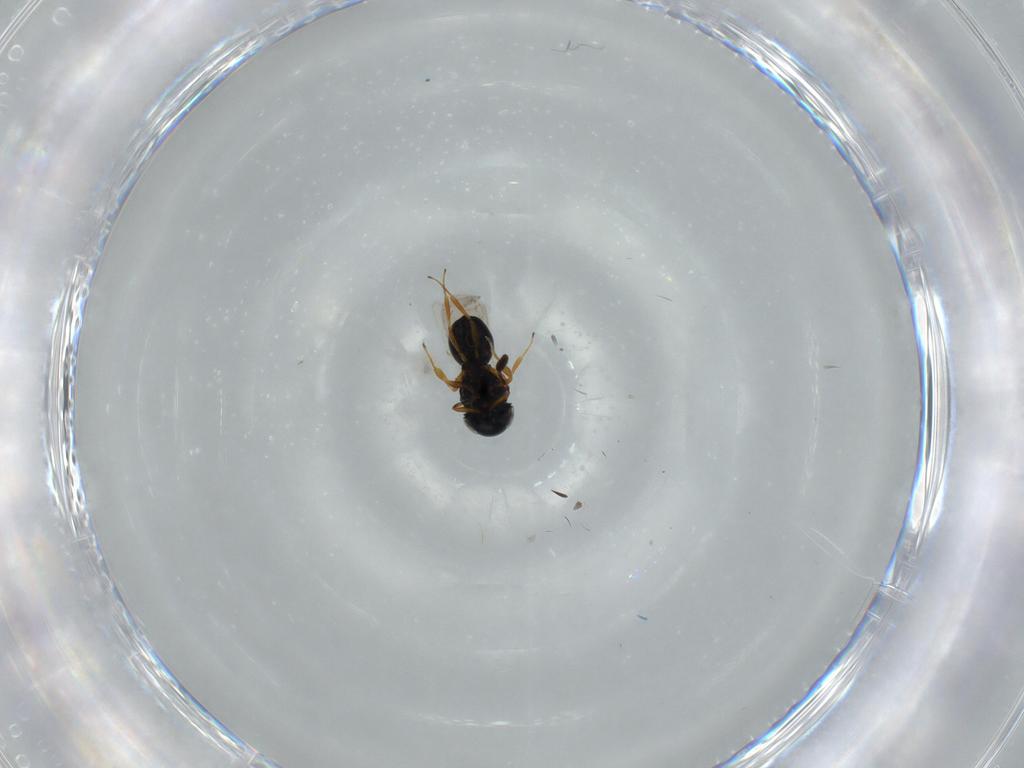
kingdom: Animalia
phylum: Arthropoda
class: Insecta
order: Hymenoptera
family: Scelionidae
